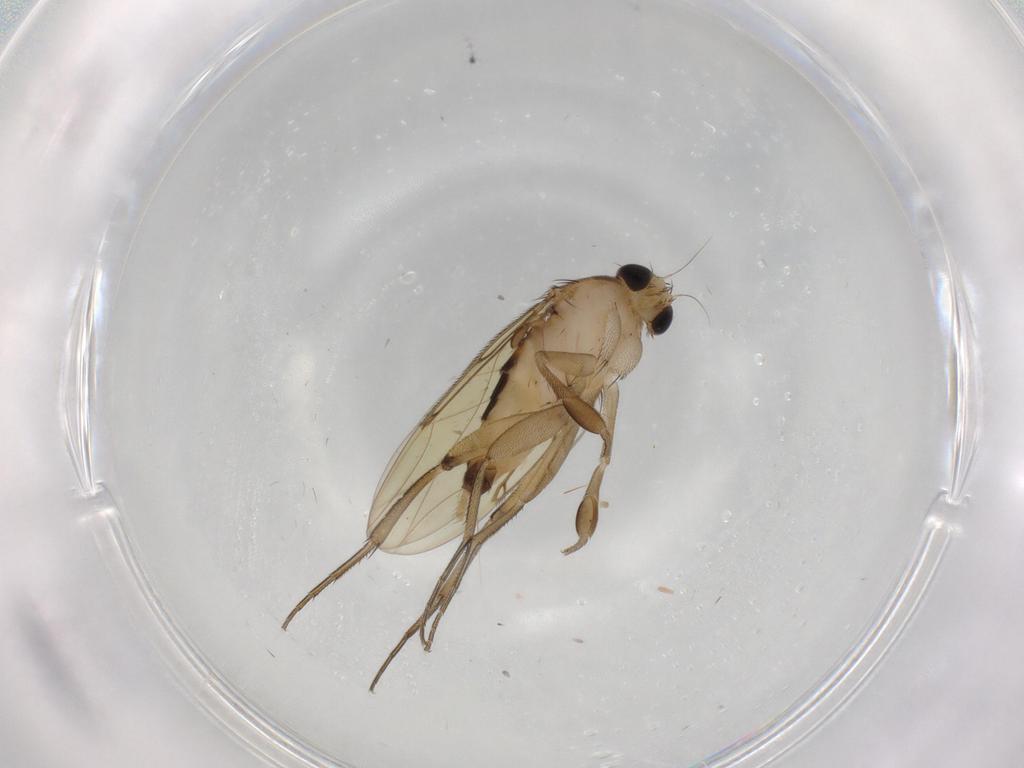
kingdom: Animalia
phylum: Arthropoda
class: Insecta
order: Diptera
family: Phoridae
